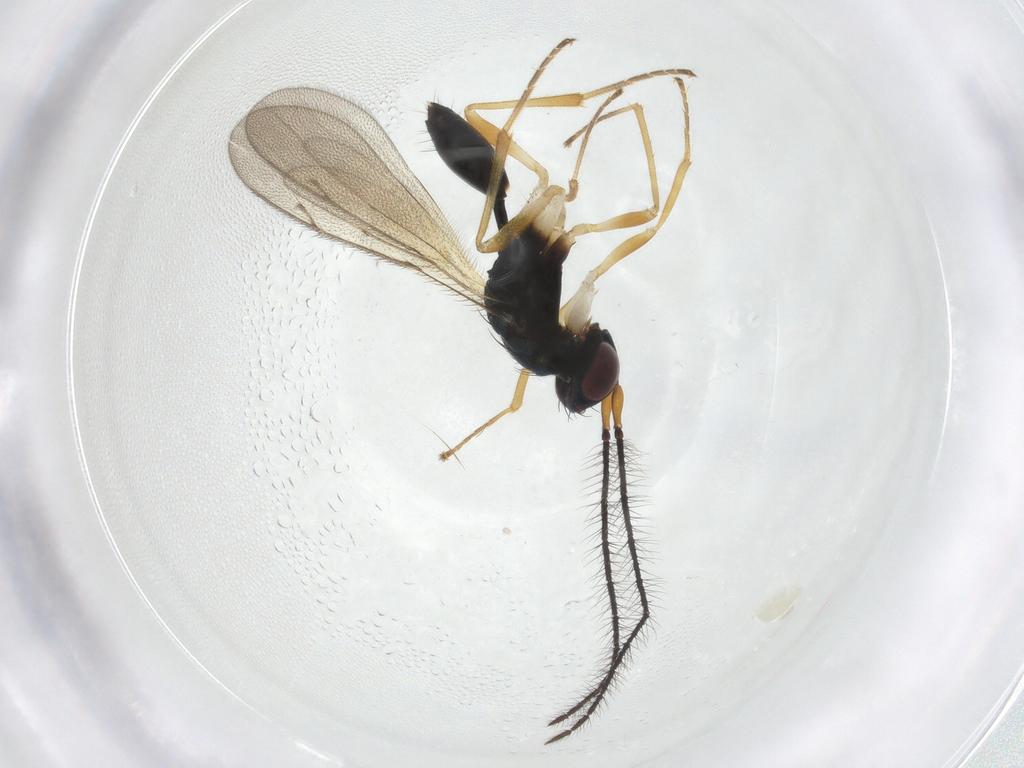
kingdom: Animalia
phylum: Arthropoda
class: Insecta
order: Hymenoptera
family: Diparidae
